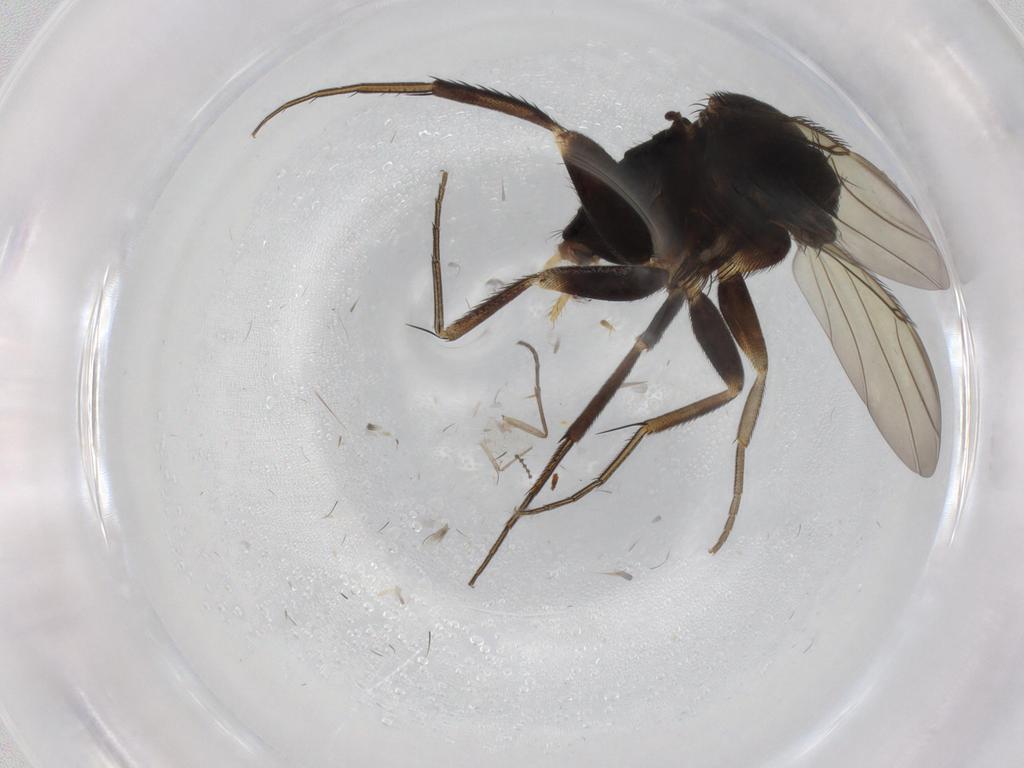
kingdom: Animalia
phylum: Arthropoda
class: Insecta
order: Diptera
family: Phoridae
